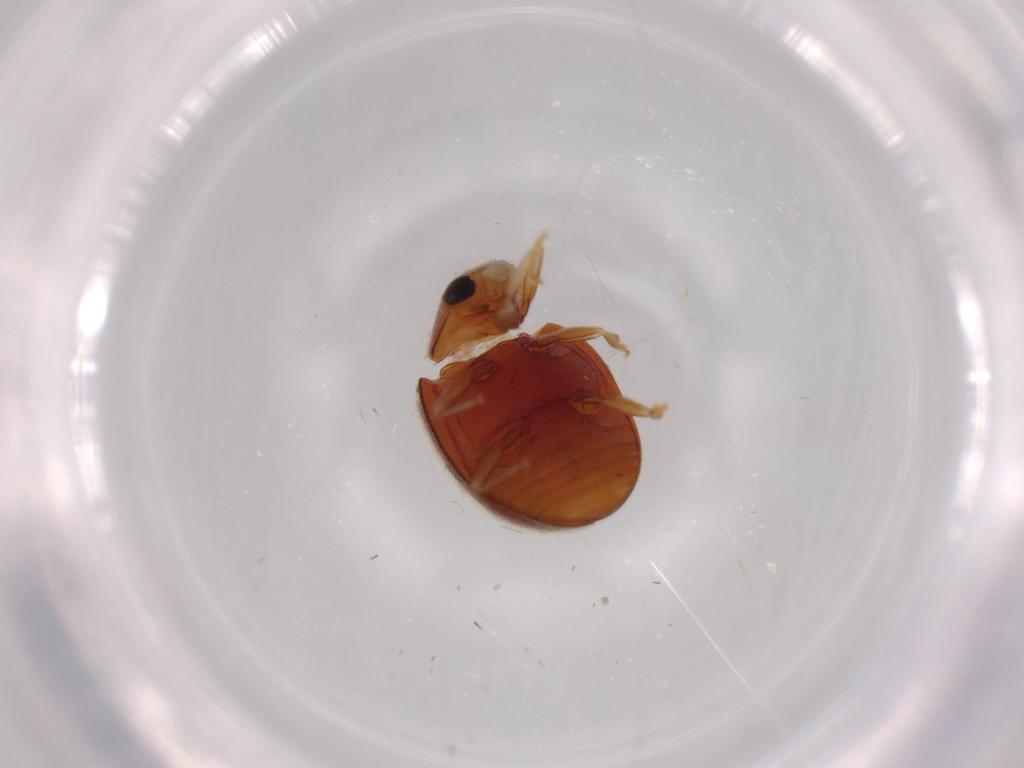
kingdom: Animalia
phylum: Arthropoda
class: Insecta
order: Coleoptera
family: Coccinellidae
